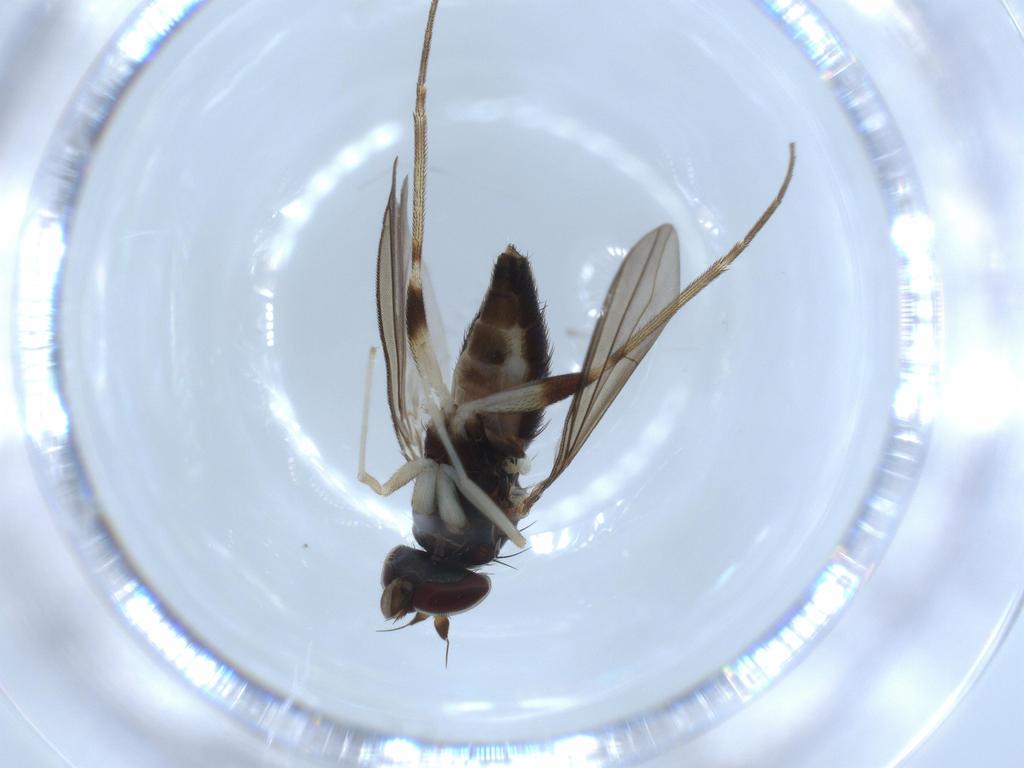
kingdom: Animalia
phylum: Arthropoda
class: Insecta
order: Diptera
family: Dolichopodidae
